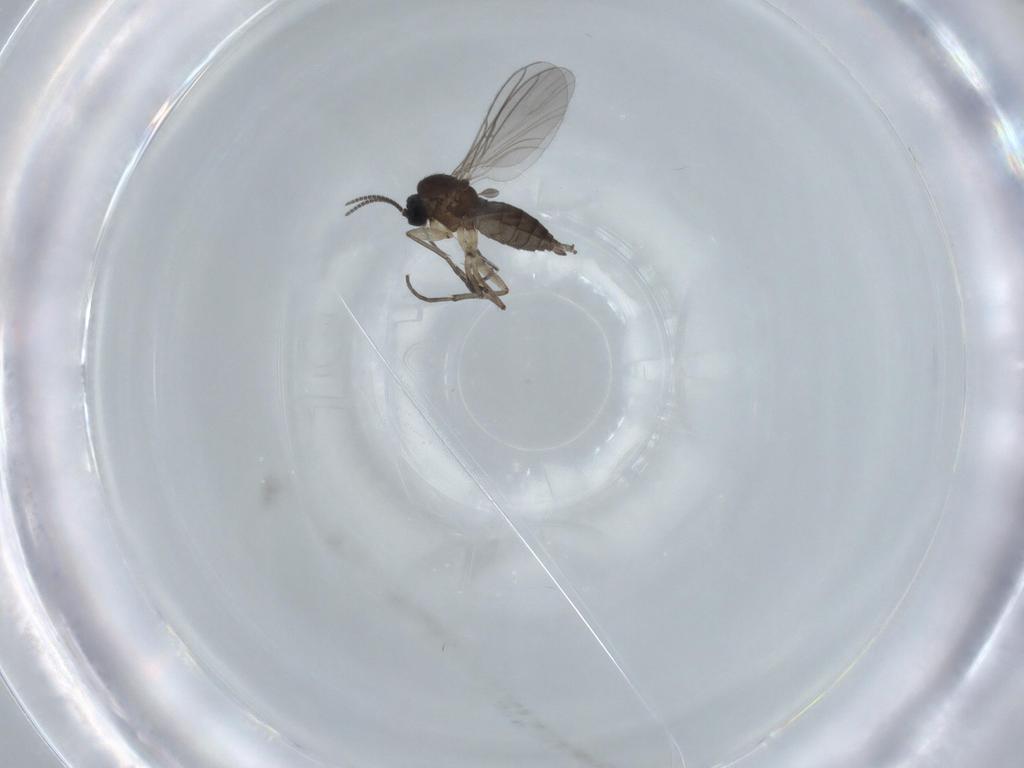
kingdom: Animalia
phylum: Arthropoda
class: Insecta
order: Diptera
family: Sciaridae
